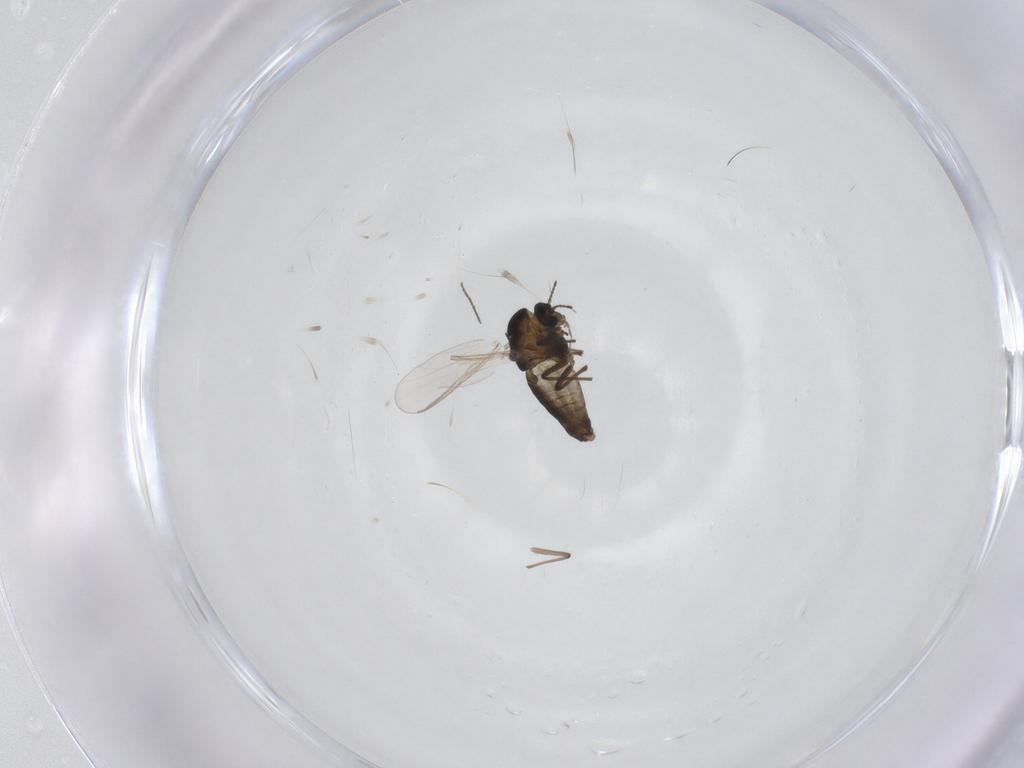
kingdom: Animalia
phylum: Arthropoda
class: Insecta
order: Diptera
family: Chironomidae
